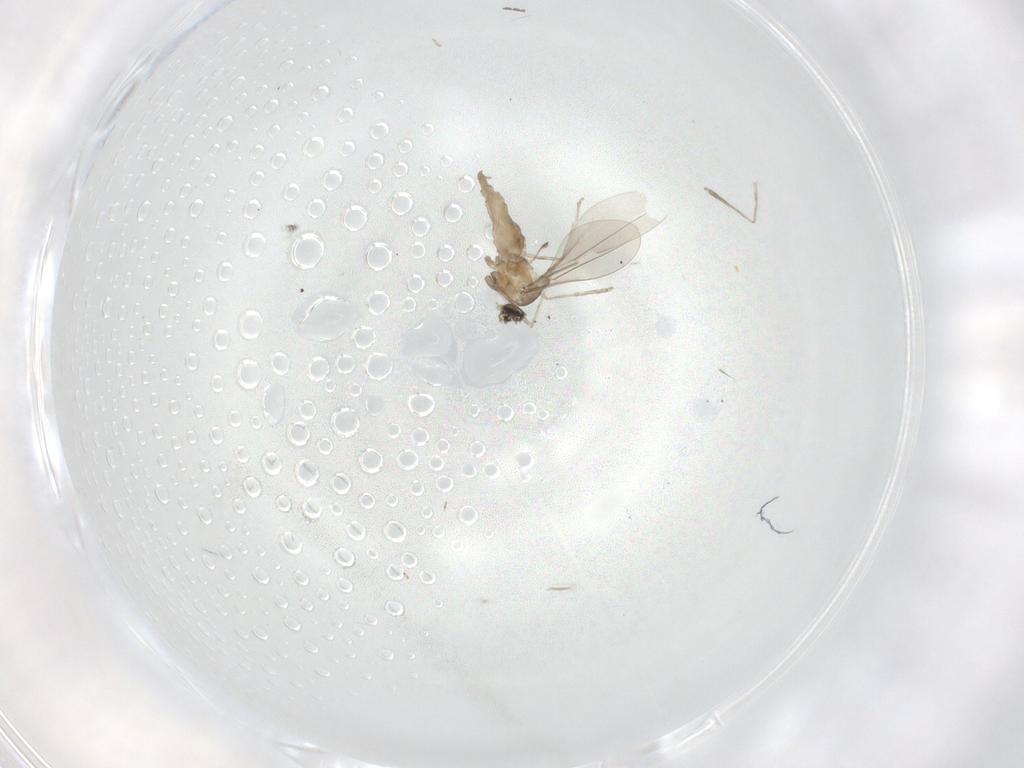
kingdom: Animalia
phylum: Arthropoda
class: Insecta
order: Diptera
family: Cecidomyiidae
